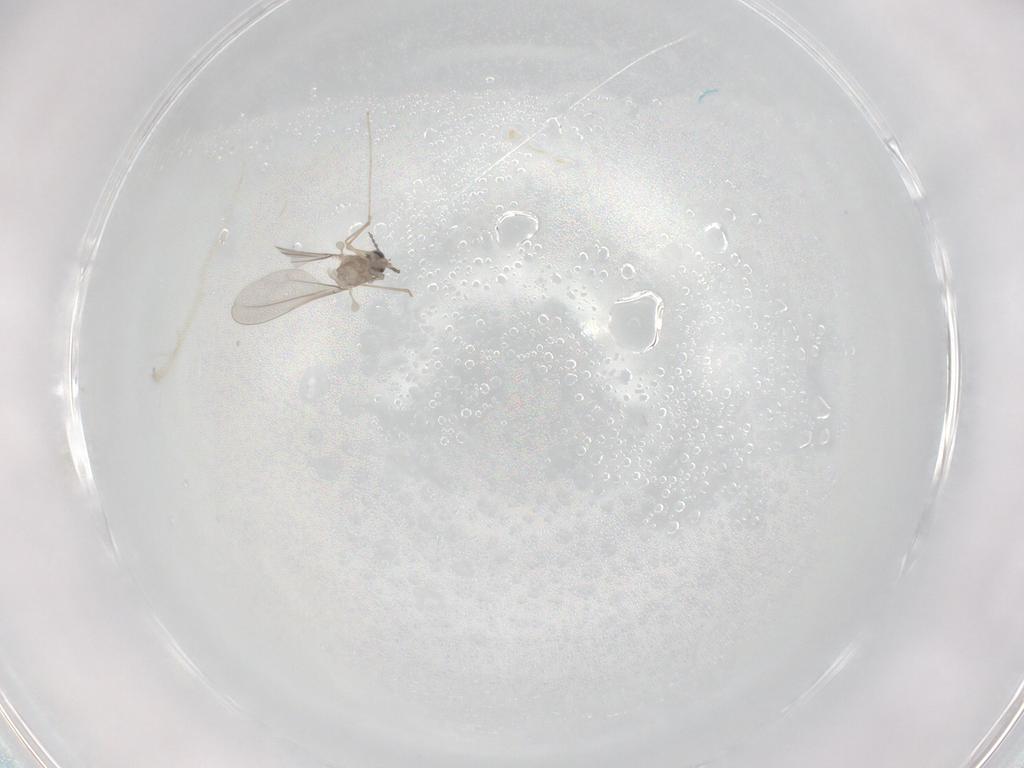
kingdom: Animalia
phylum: Arthropoda
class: Insecta
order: Diptera
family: Cecidomyiidae
